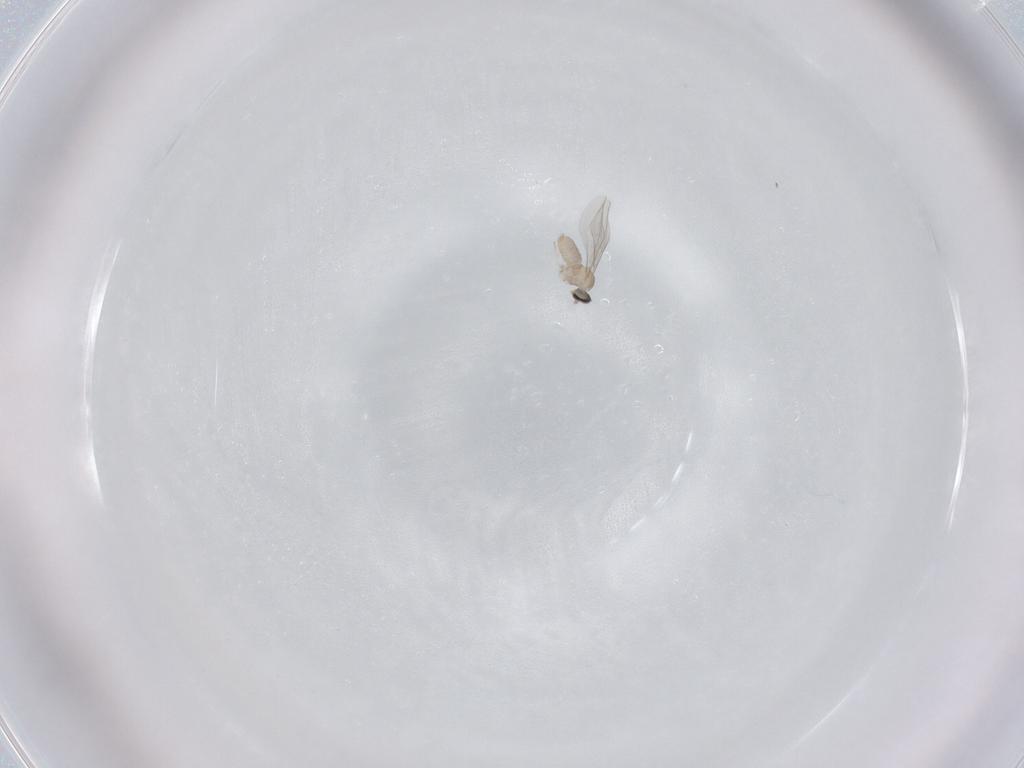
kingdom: Animalia
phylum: Arthropoda
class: Insecta
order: Diptera
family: Cecidomyiidae
